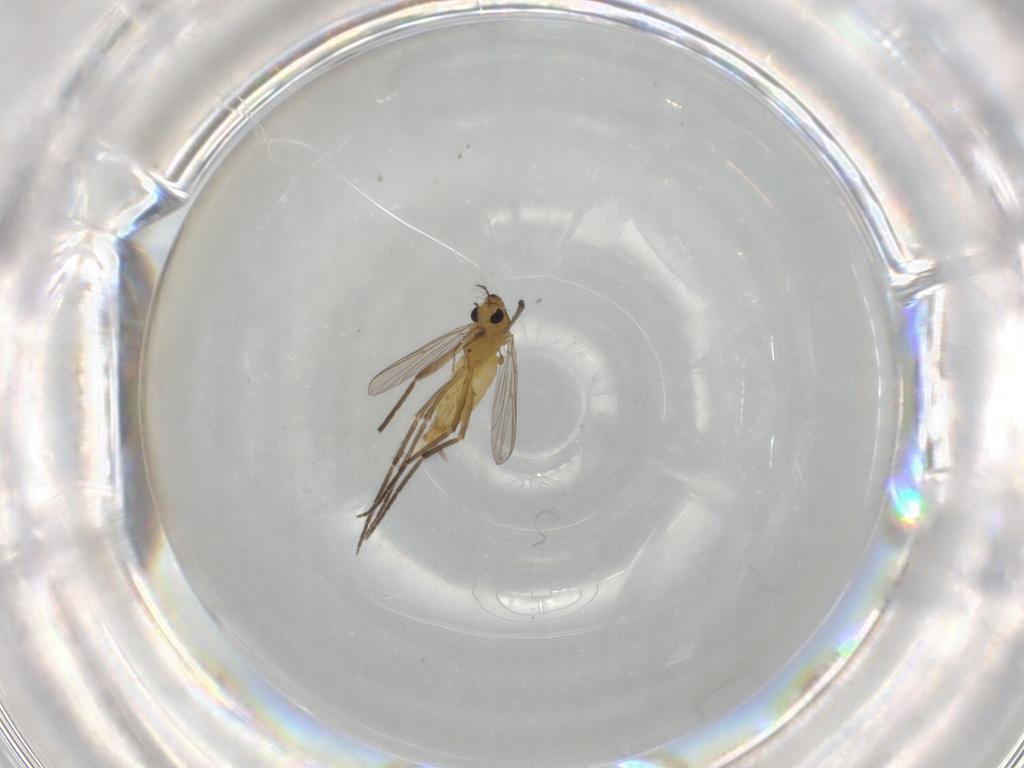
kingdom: Animalia
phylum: Arthropoda
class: Insecta
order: Diptera
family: Chironomidae
